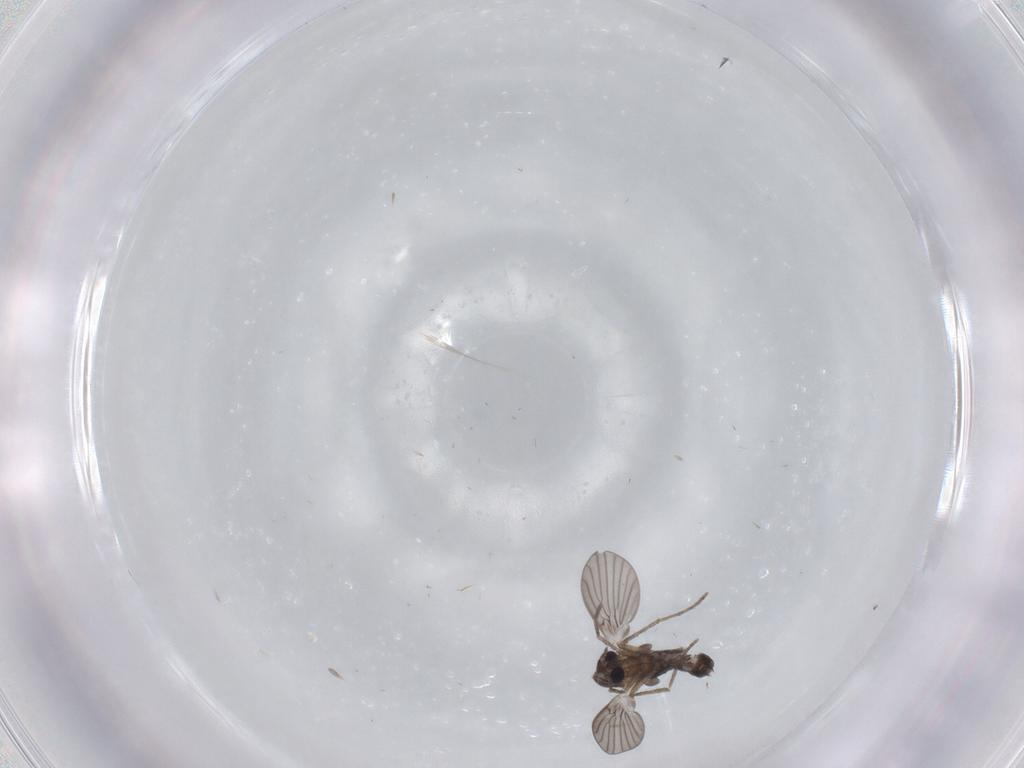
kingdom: Animalia
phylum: Arthropoda
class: Insecta
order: Diptera
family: Cecidomyiidae
